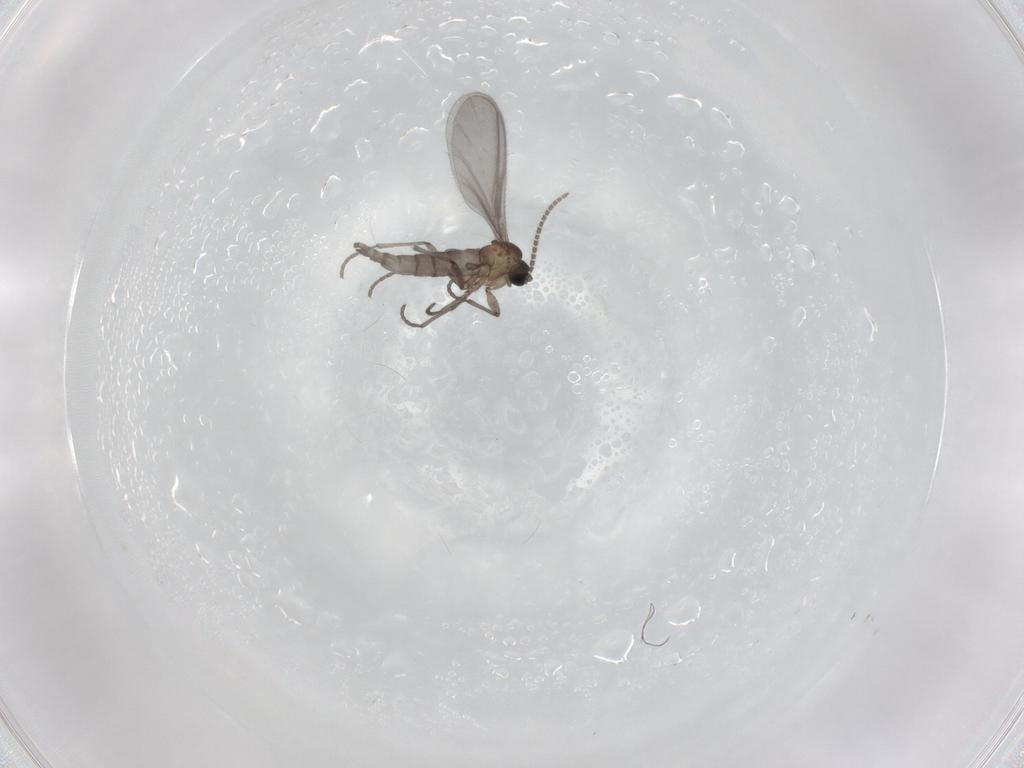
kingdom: Animalia
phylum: Arthropoda
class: Insecta
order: Diptera
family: Sciaridae
